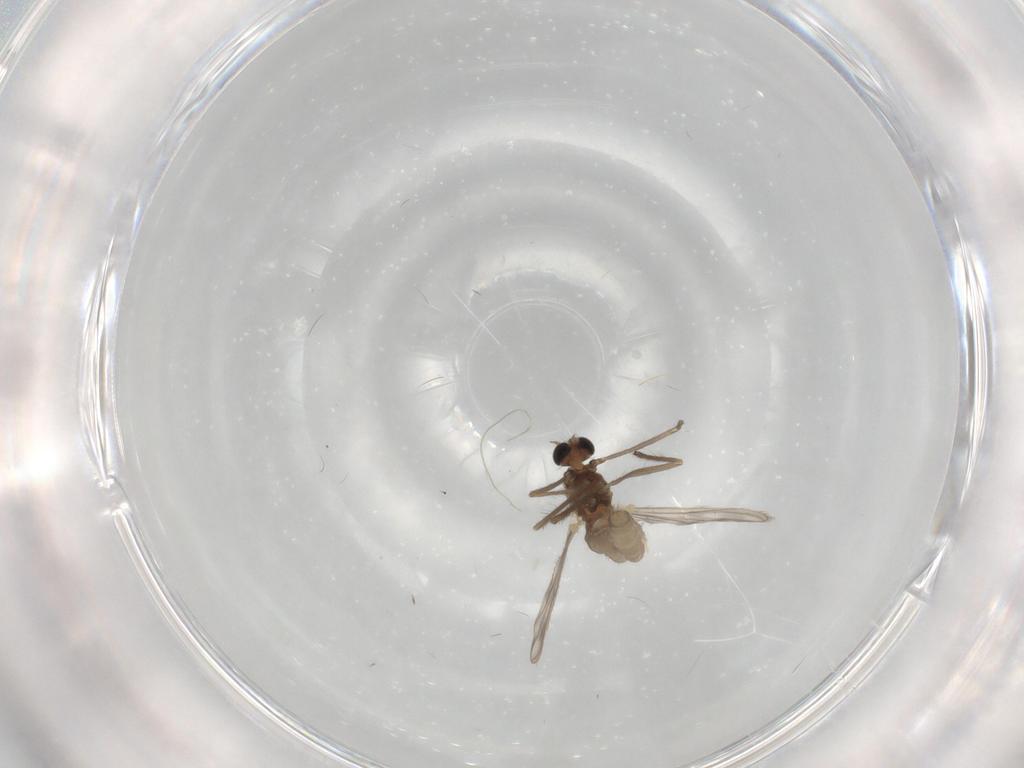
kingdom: Animalia
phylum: Arthropoda
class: Insecta
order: Diptera
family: Chironomidae
